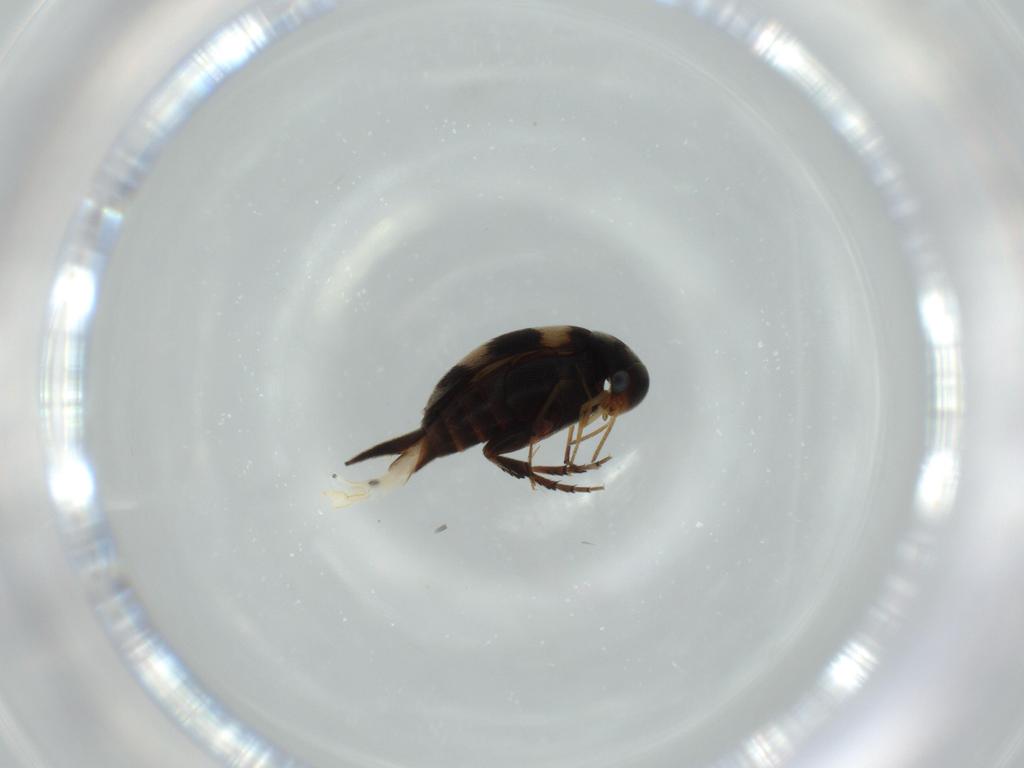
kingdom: Animalia
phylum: Arthropoda
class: Insecta
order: Coleoptera
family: Mordellidae
